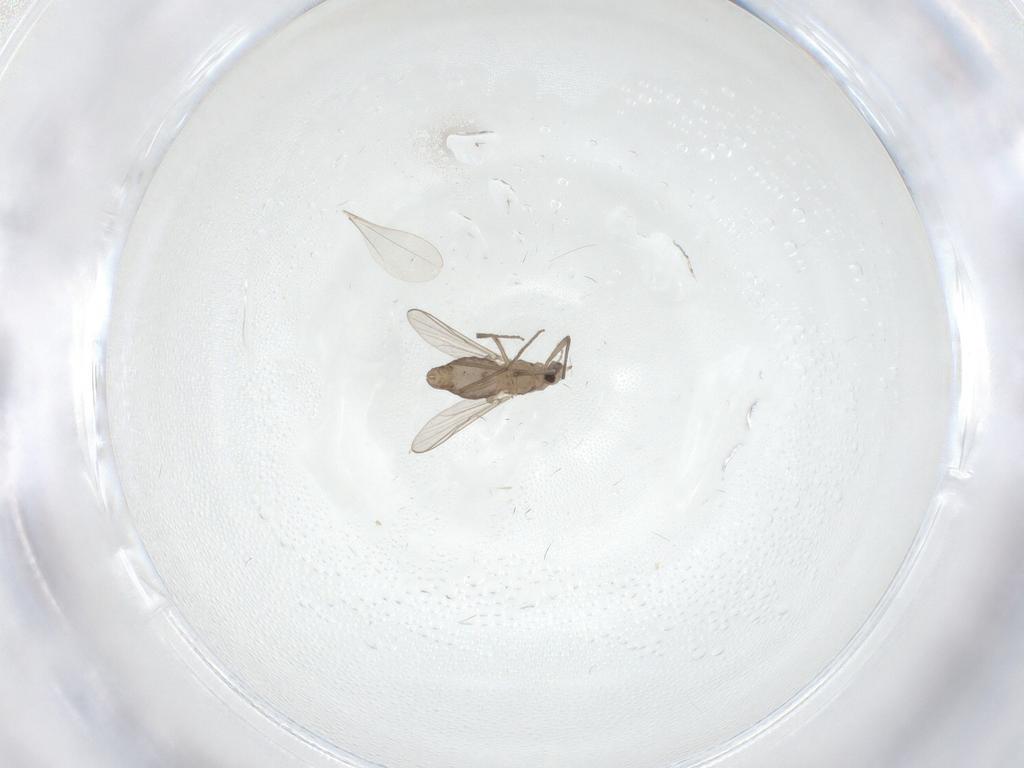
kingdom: Animalia
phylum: Arthropoda
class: Insecta
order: Diptera
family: Chironomidae
